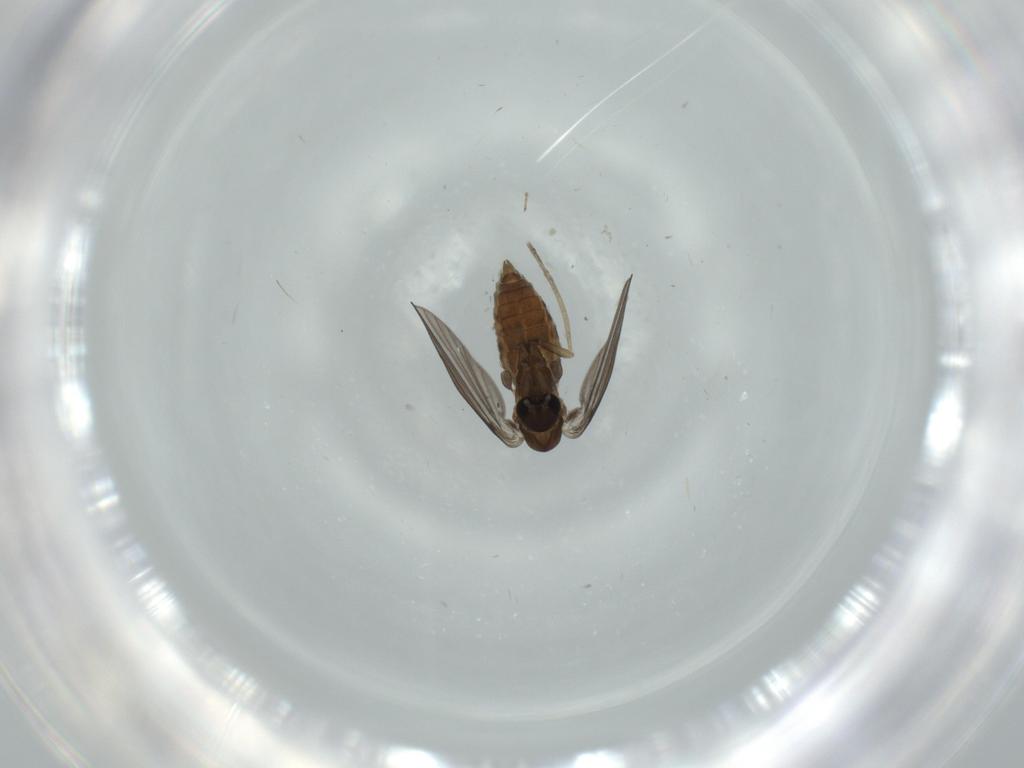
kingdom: Animalia
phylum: Arthropoda
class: Insecta
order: Diptera
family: Psychodidae
